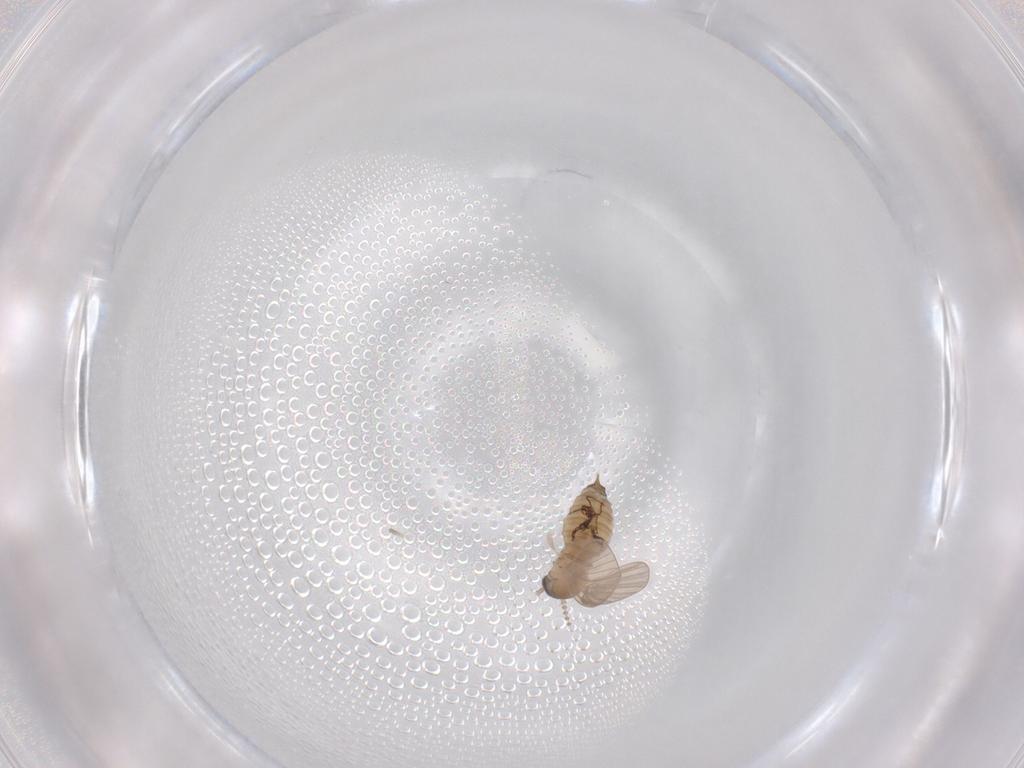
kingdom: Animalia
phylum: Arthropoda
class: Insecta
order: Diptera
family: Psychodidae
